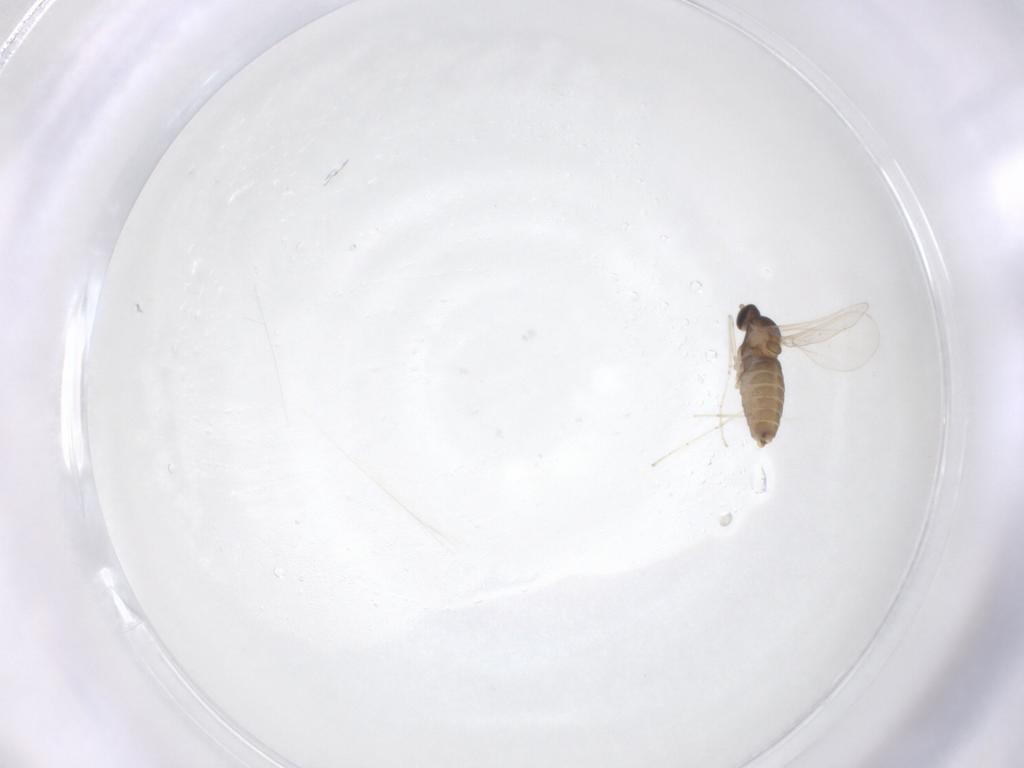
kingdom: Animalia
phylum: Arthropoda
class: Insecta
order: Diptera
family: Cecidomyiidae
